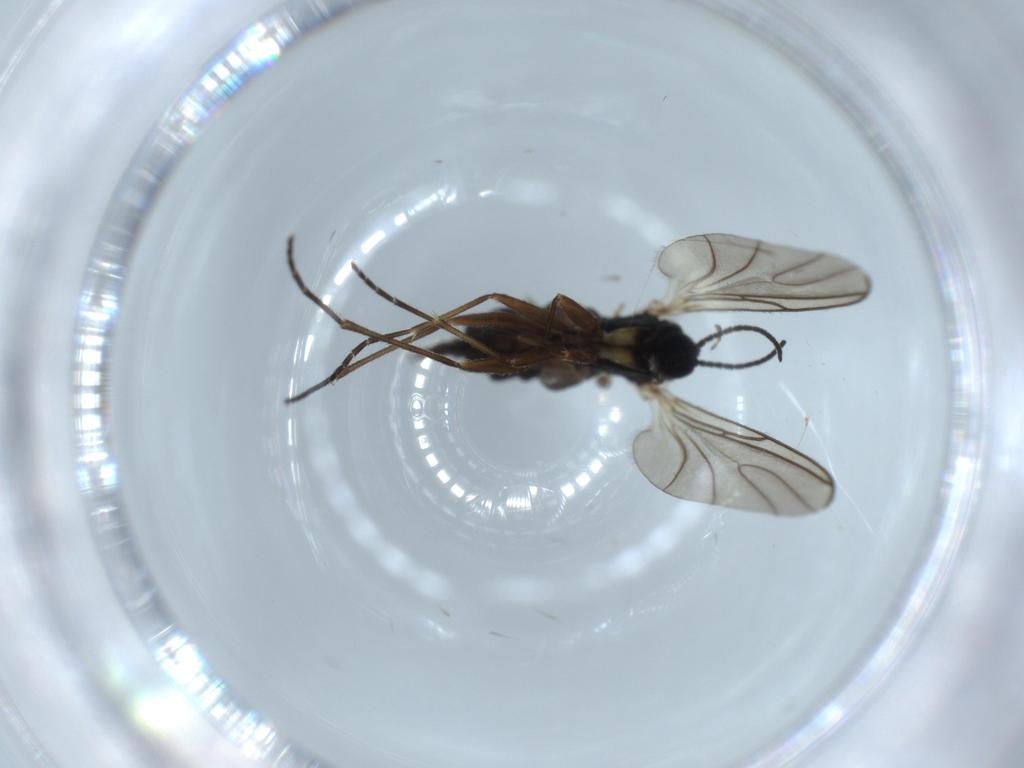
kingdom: Animalia
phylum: Arthropoda
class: Insecta
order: Diptera
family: Sciaridae
